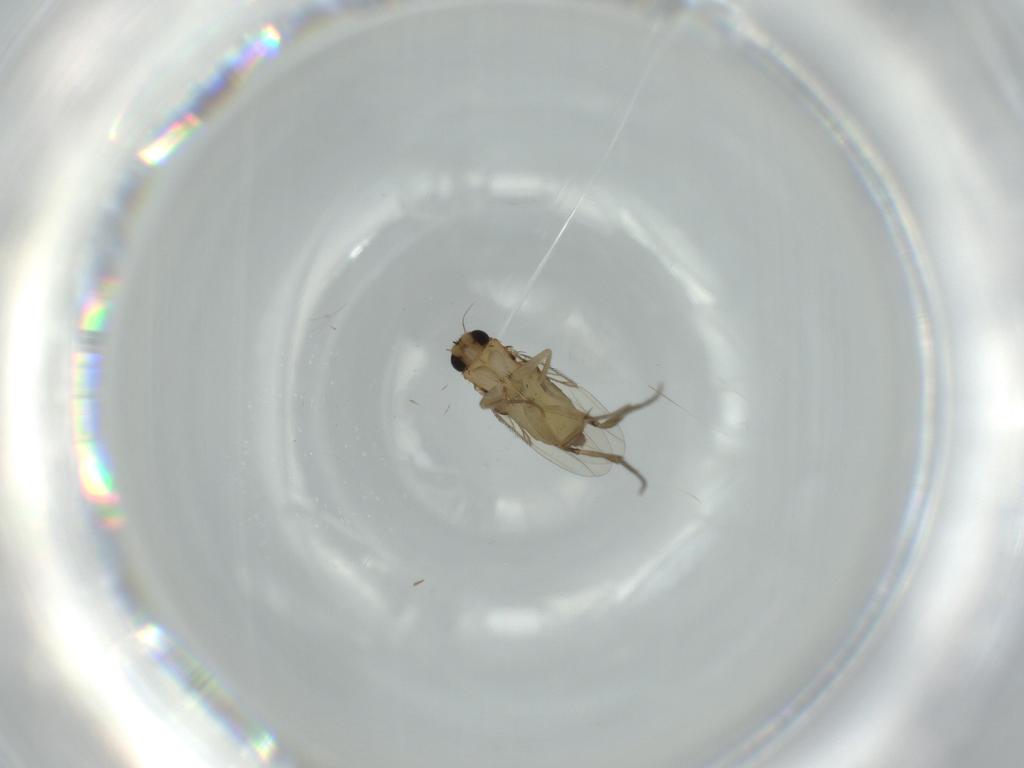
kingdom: Animalia
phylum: Arthropoda
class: Insecta
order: Diptera
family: Phoridae
